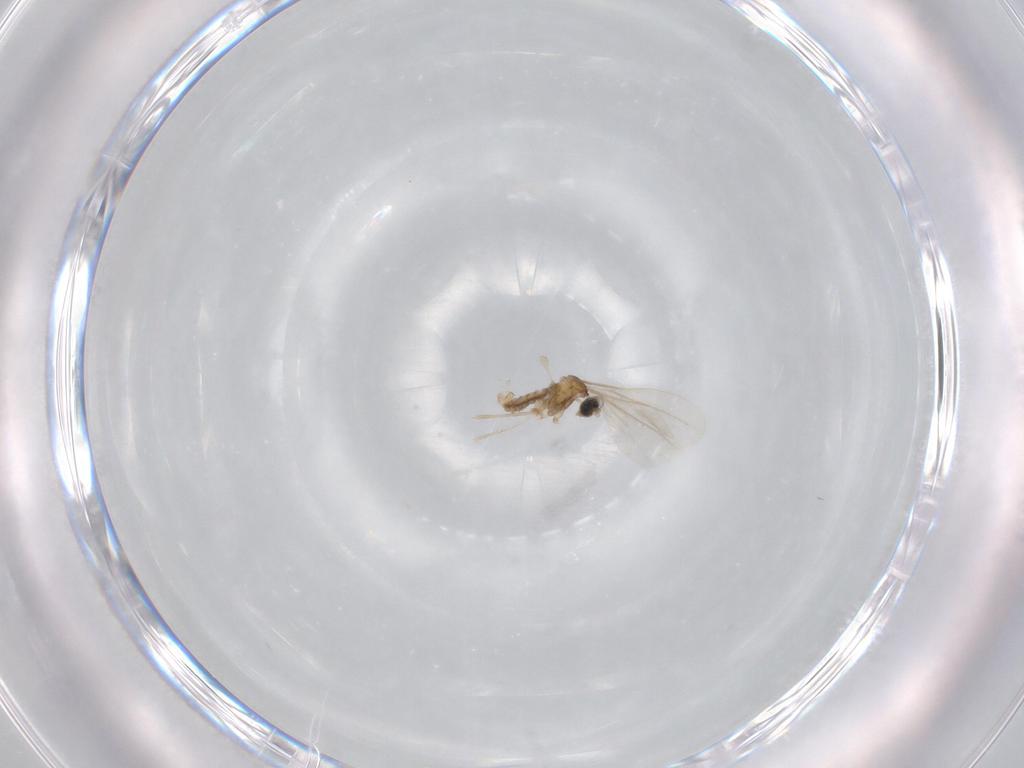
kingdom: Animalia
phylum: Arthropoda
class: Insecta
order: Diptera
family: Cecidomyiidae
